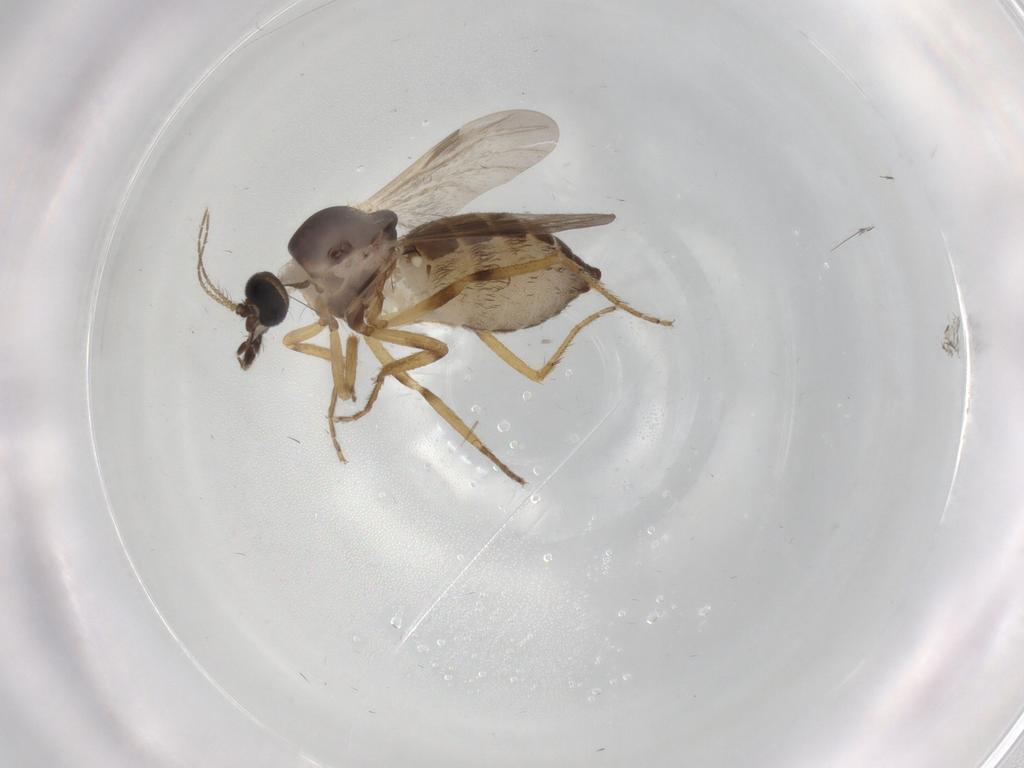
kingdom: Animalia
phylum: Arthropoda
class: Insecta
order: Diptera
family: Ceratopogonidae
